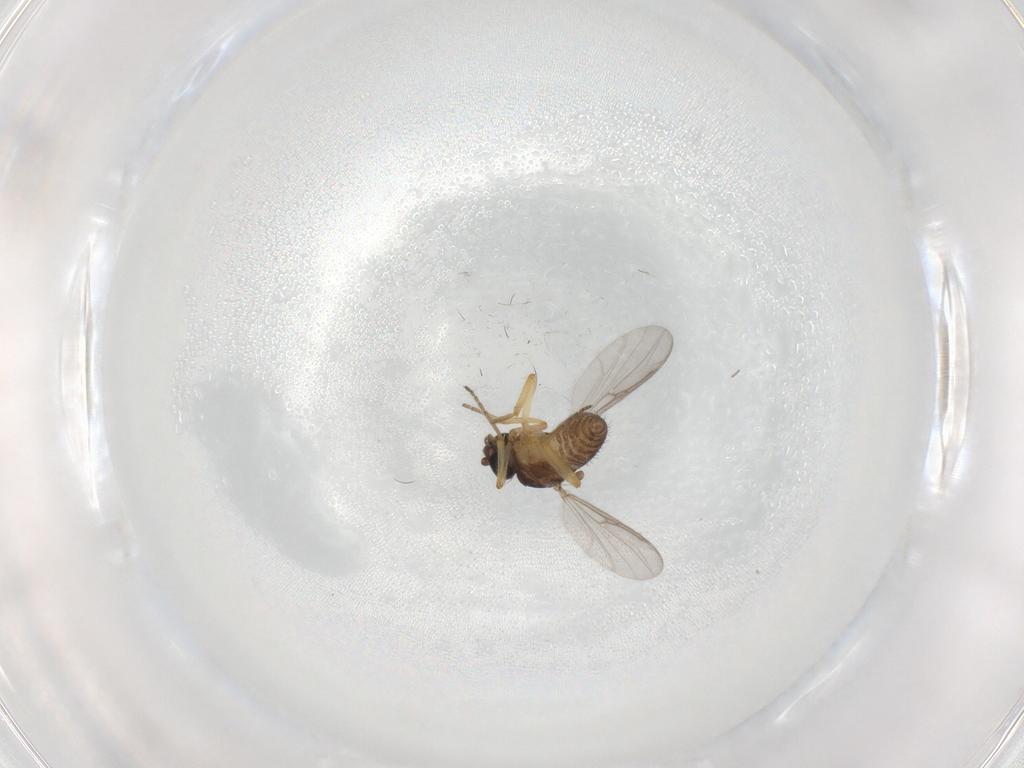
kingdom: Animalia
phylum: Arthropoda
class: Insecta
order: Diptera
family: Ceratopogonidae
